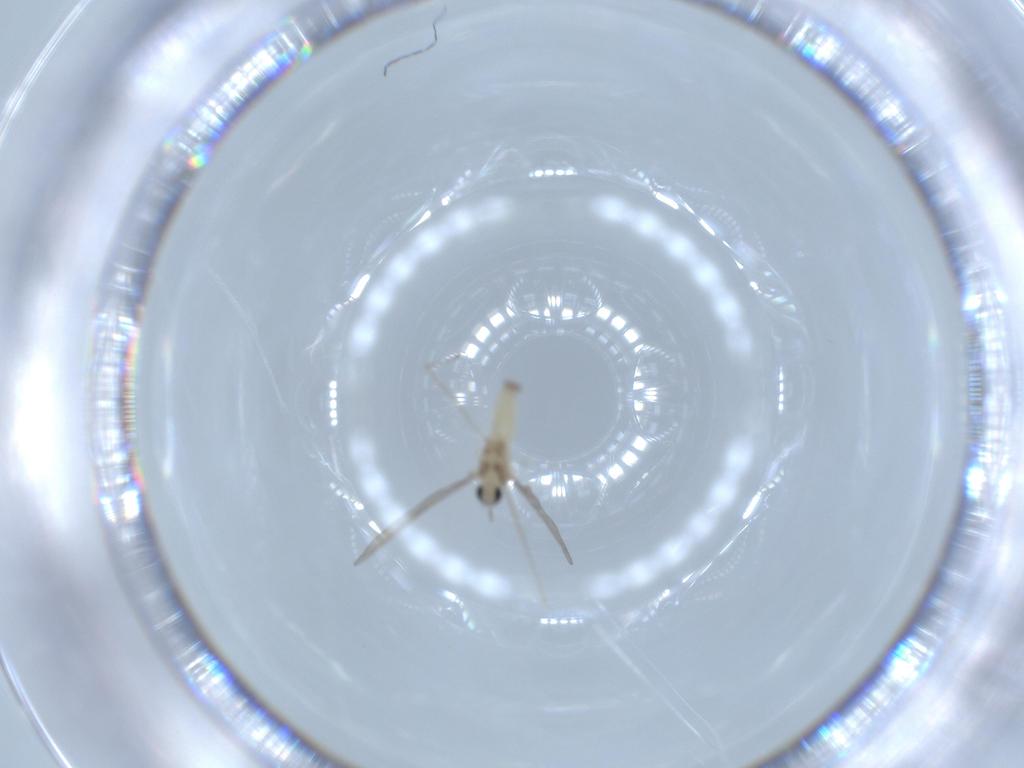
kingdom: Animalia
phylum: Arthropoda
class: Insecta
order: Diptera
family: Cecidomyiidae
